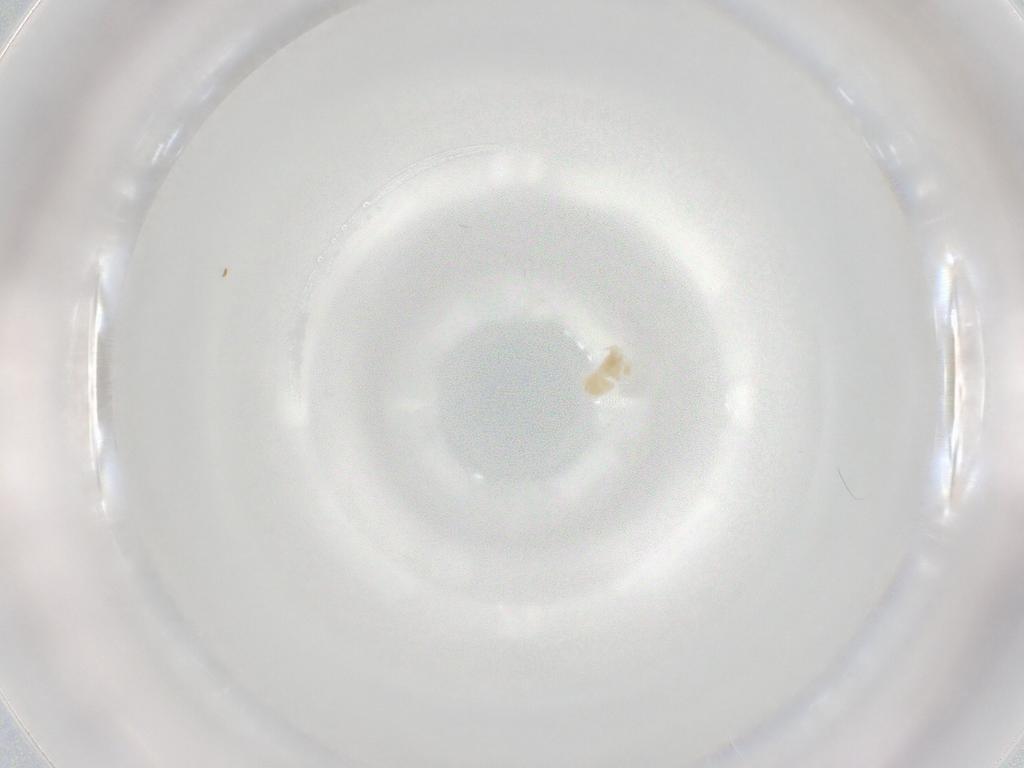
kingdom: Animalia
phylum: Arthropoda
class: Arachnida
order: Trombidiformes
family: Eupodidae
